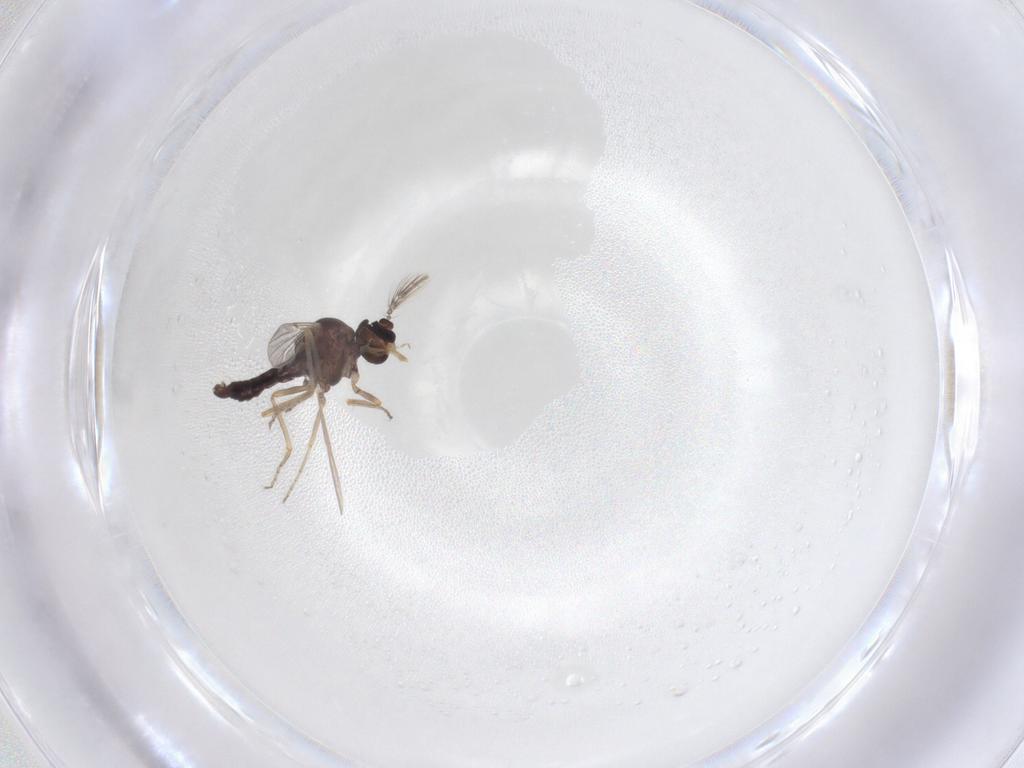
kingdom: Animalia
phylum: Arthropoda
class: Insecta
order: Diptera
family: Ceratopogonidae
